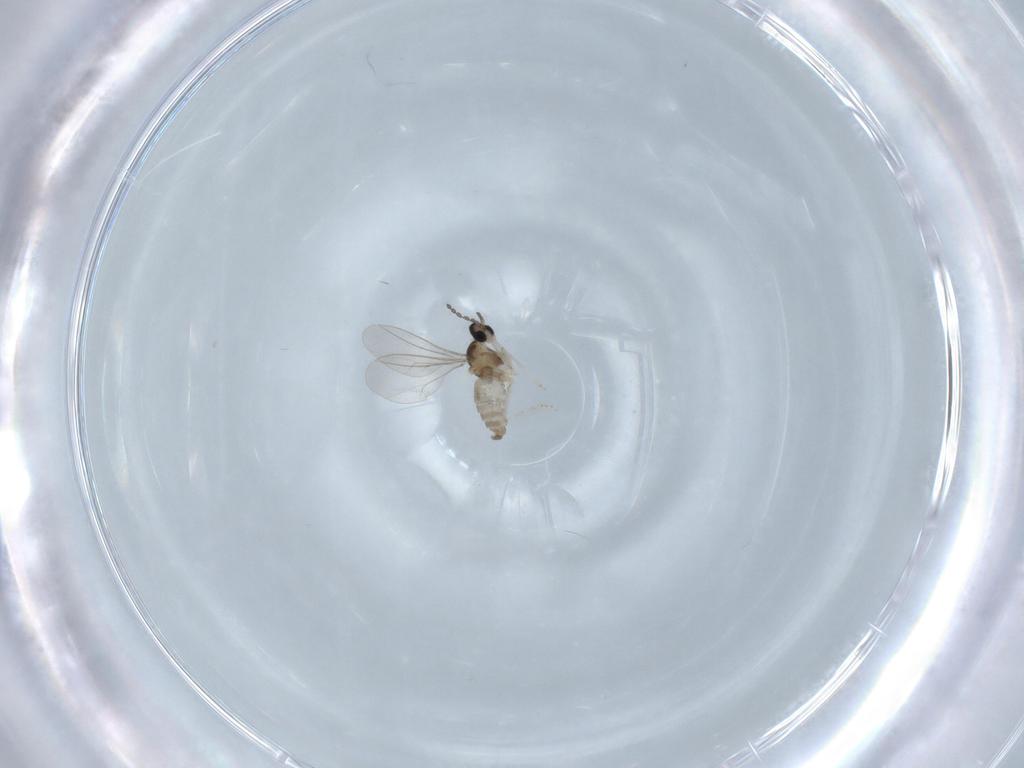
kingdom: Animalia
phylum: Arthropoda
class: Insecta
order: Diptera
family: Cecidomyiidae
